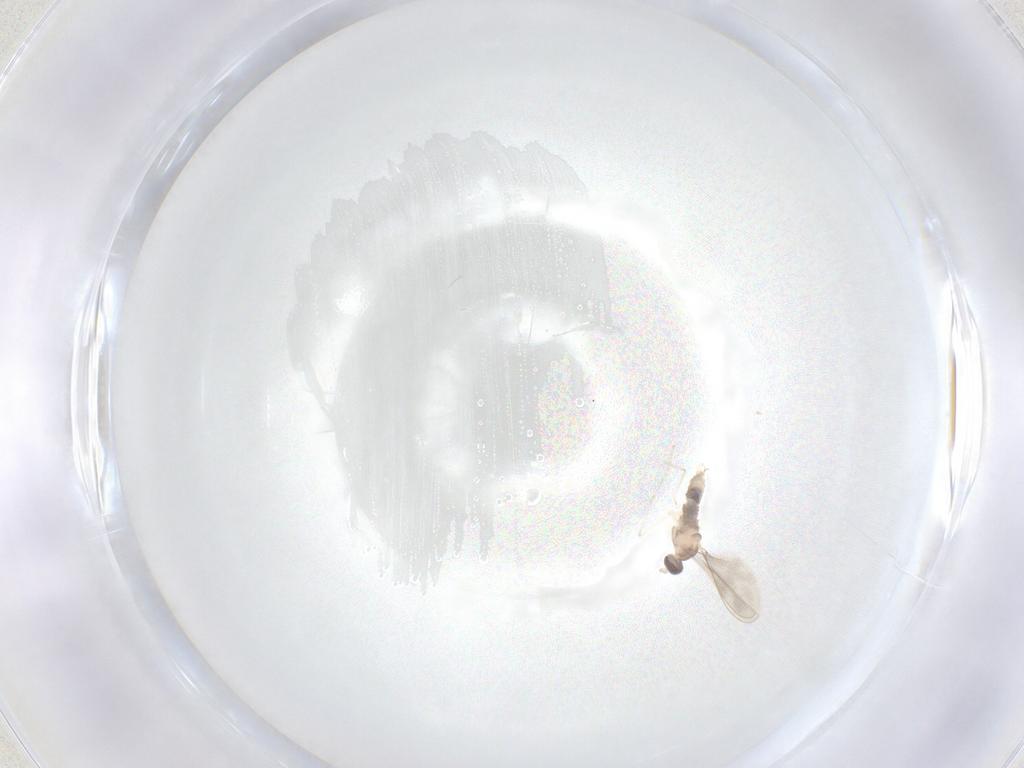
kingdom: Animalia
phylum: Arthropoda
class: Insecta
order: Diptera
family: Cecidomyiidae
